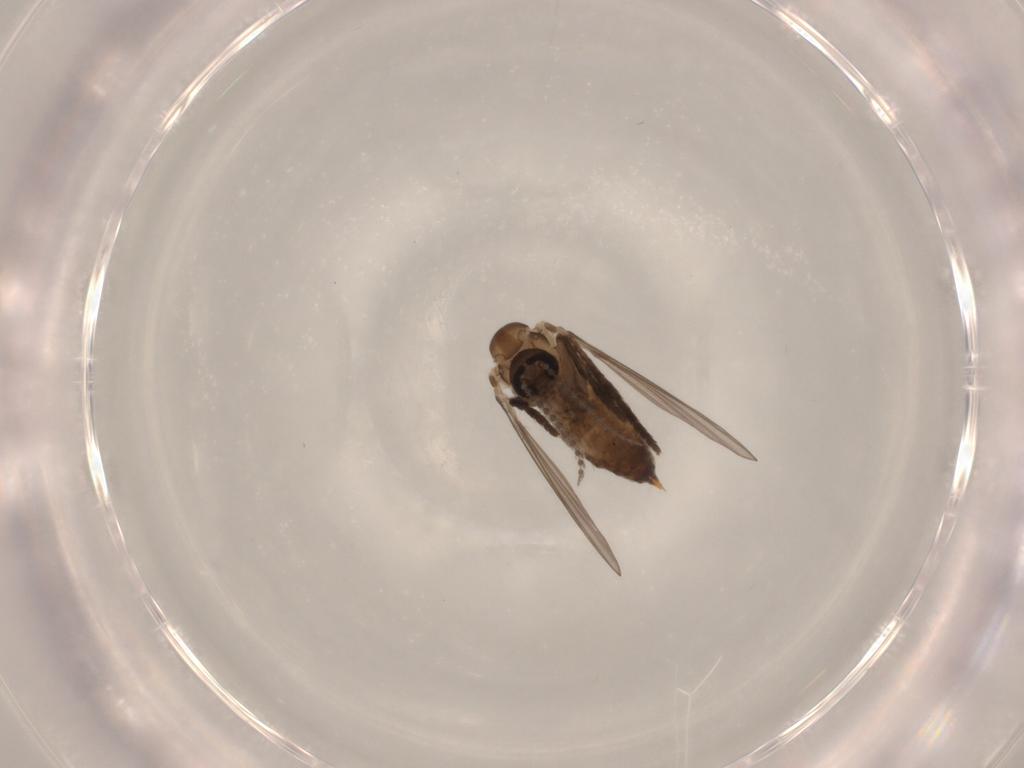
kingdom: Animalia
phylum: Arthropoda
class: Insecta
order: Diptera
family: Psychodidae
